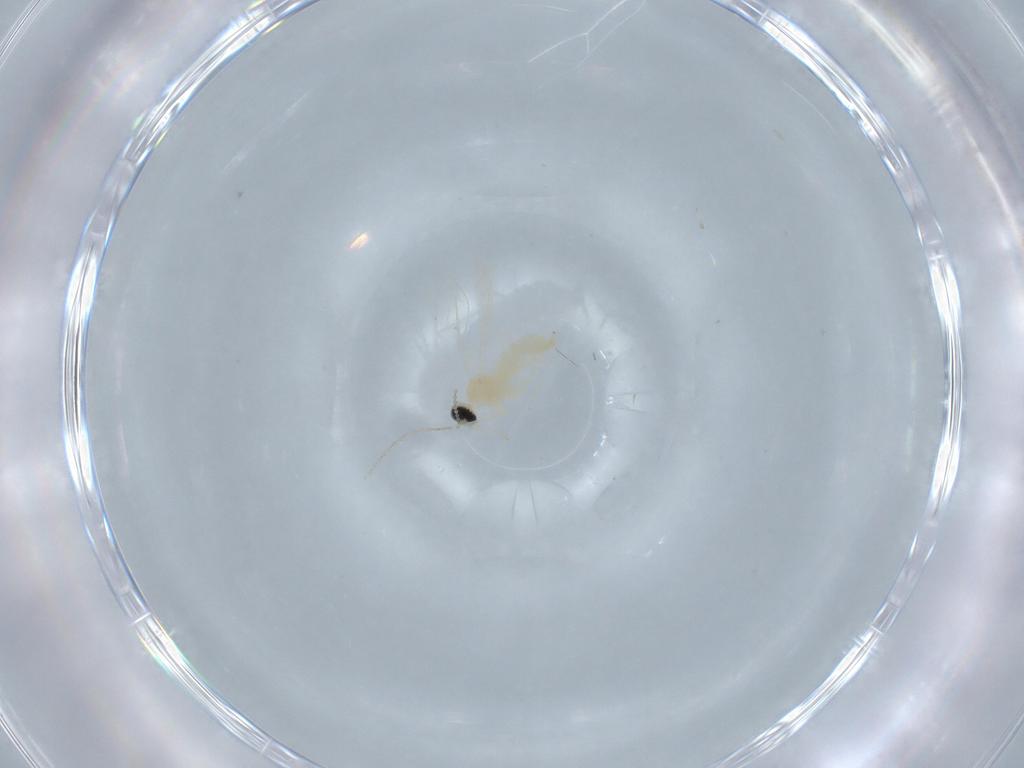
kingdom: Animalia
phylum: Arthropoda
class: Insecta
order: Diptera
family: Ceratopogonidae
